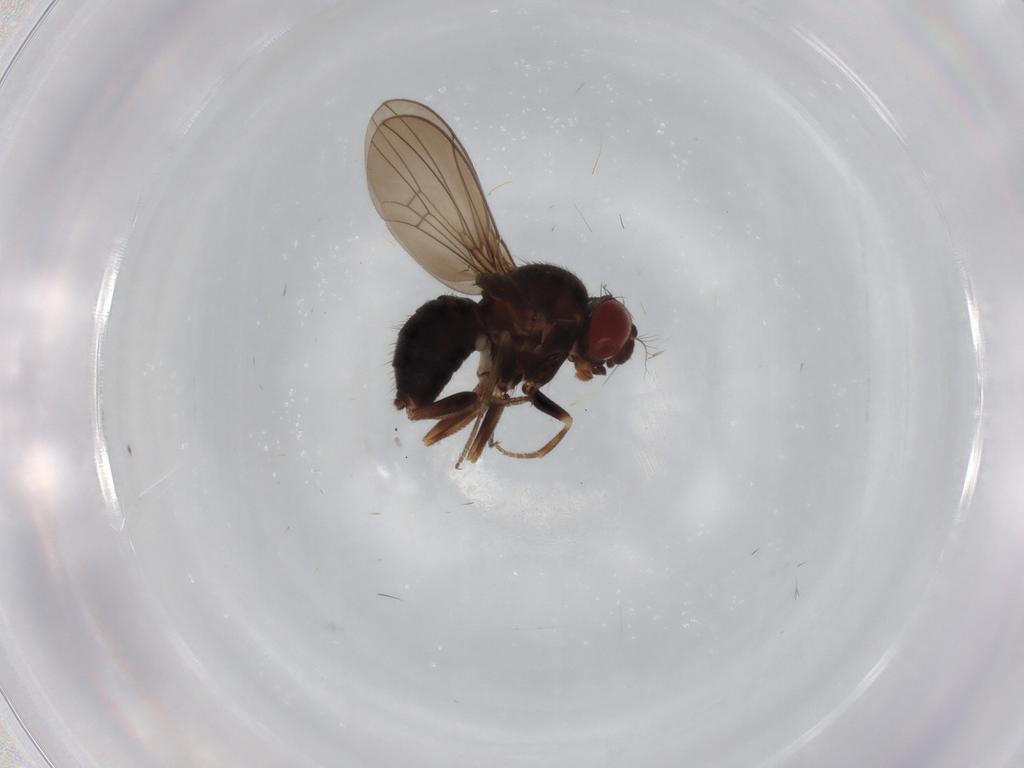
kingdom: Animalia
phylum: Arthropoda
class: Insecta
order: Diptera
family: Drosophilidae
